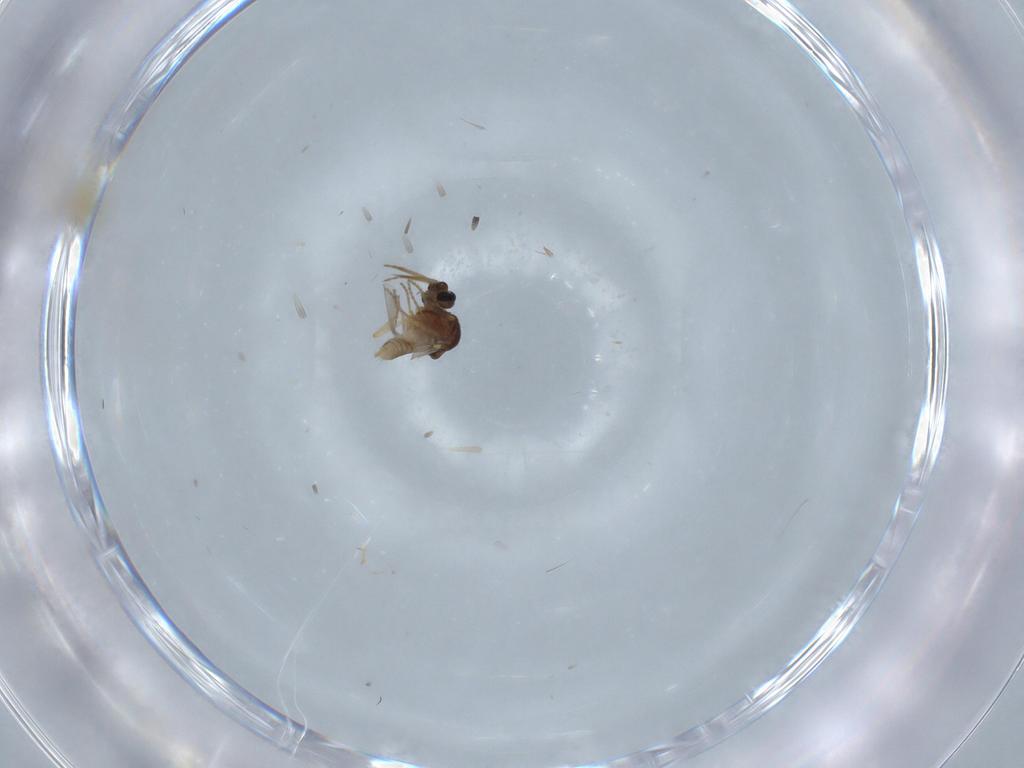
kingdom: Animalia
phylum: Arthropoda
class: Insecta
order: Diptera
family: Ceratopogonidae
